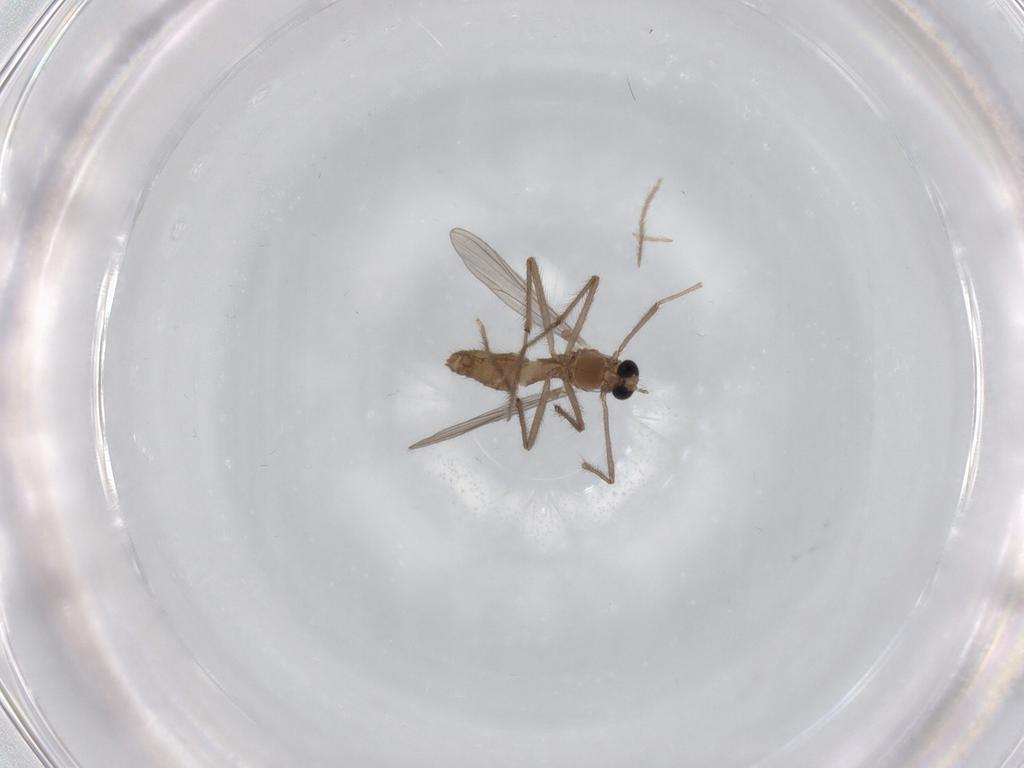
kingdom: Animalia
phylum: Arthropoda
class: Insecta
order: Diptera
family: Chironomidae
